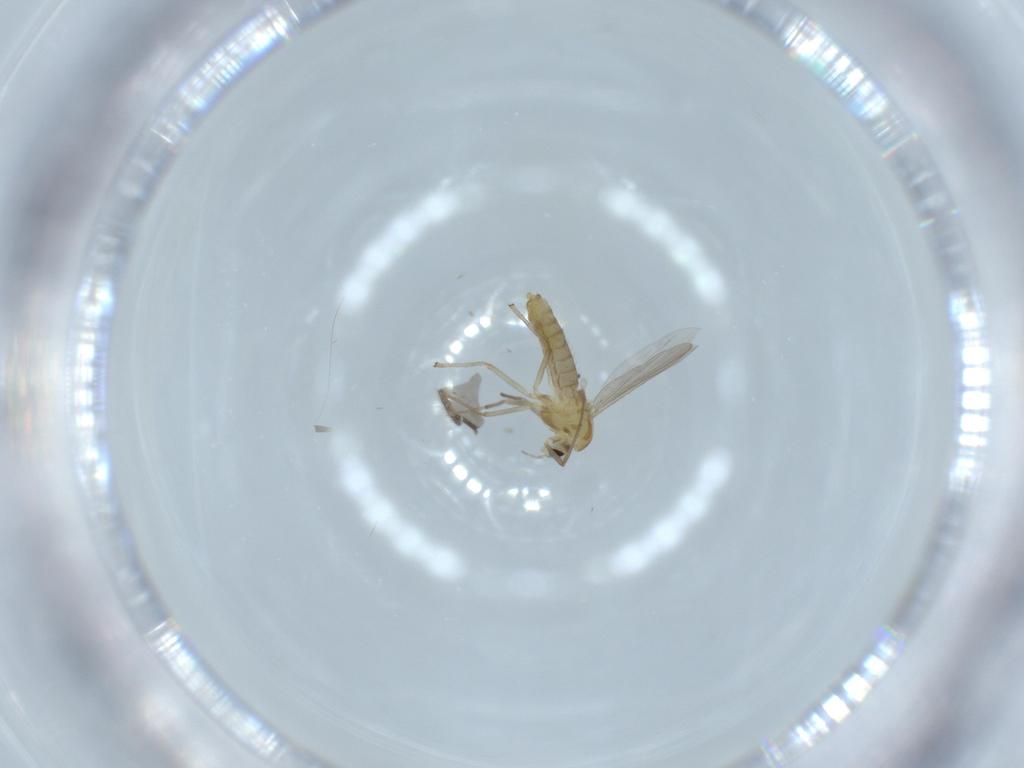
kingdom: Animalia
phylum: Arthropoda
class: Insecta
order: Diptera
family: Chironomidae
